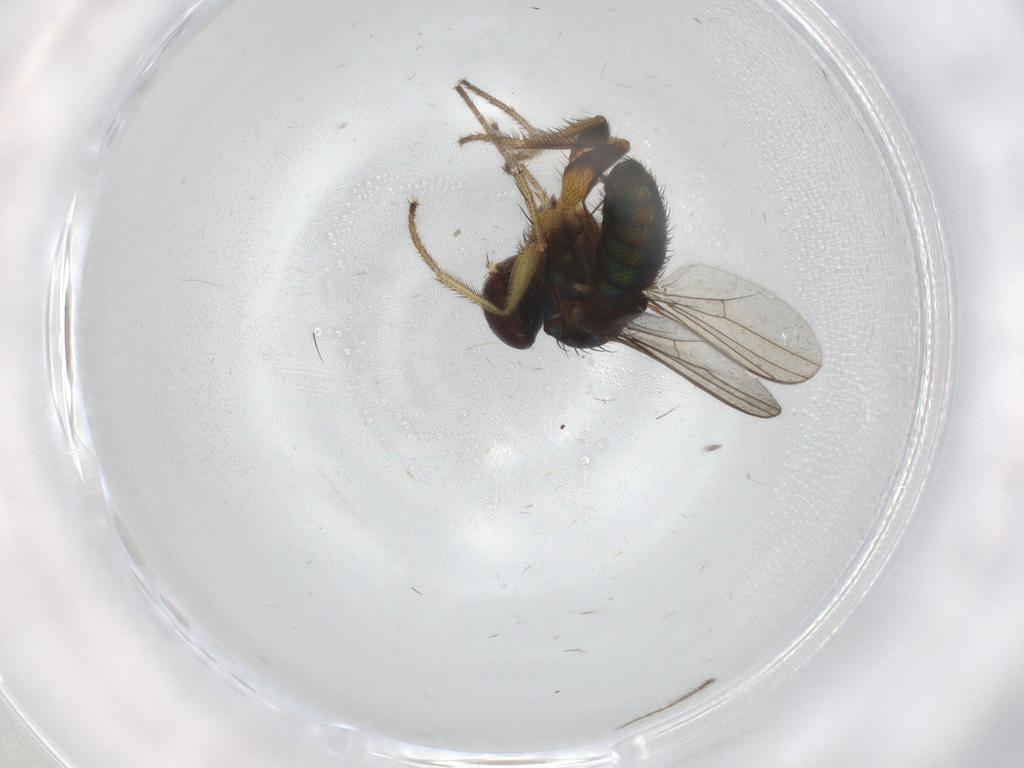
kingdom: Animalia
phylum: Arthropoda
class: Insecta
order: Diptera
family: Dolichopodidae
